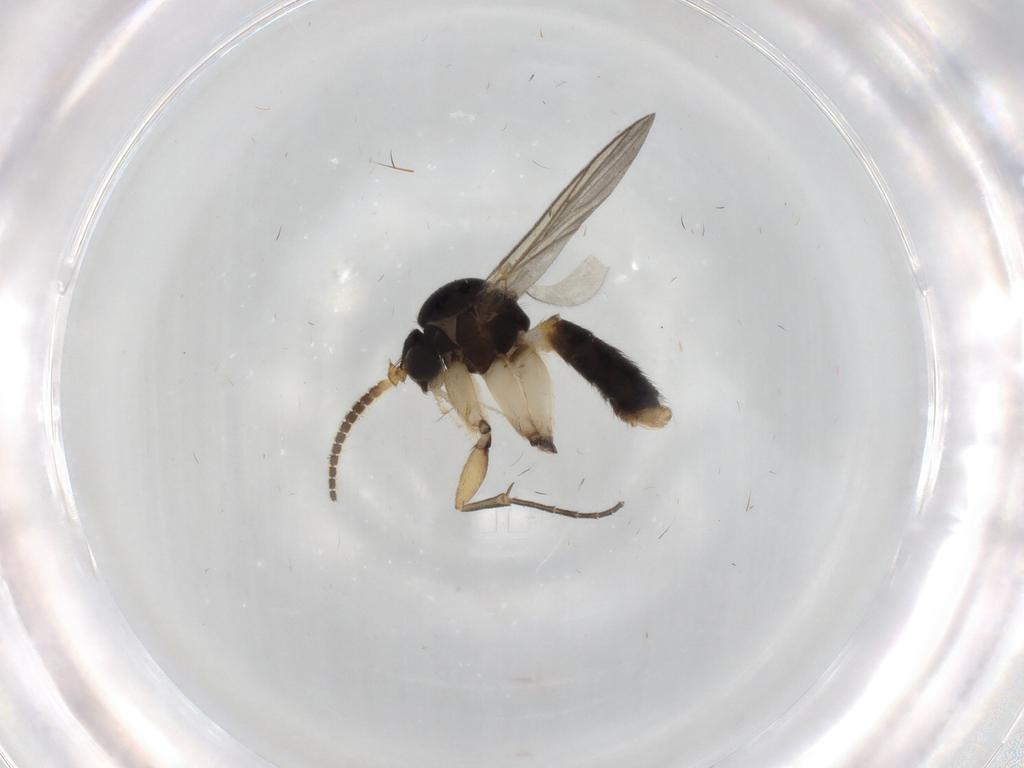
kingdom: Animalia
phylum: Arthropoda
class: Insecta
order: Diptera
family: Mycetophilidae
